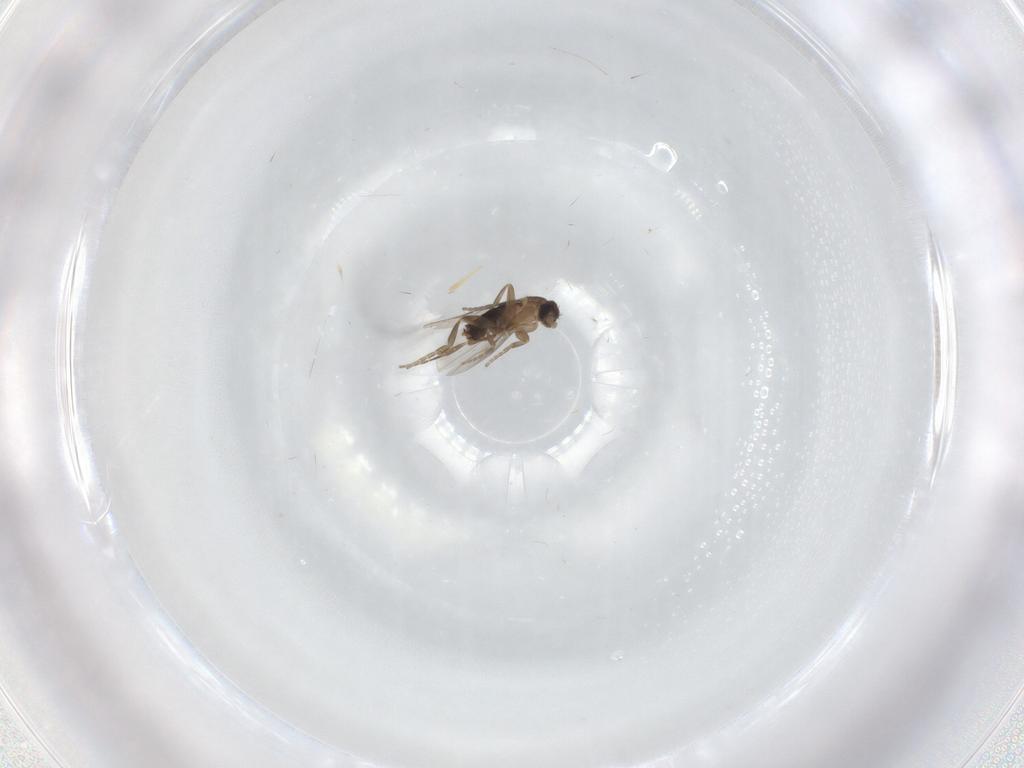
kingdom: Animalia
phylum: Arthropoda
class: Insecta
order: Diptera
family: Cecidomyiidae
